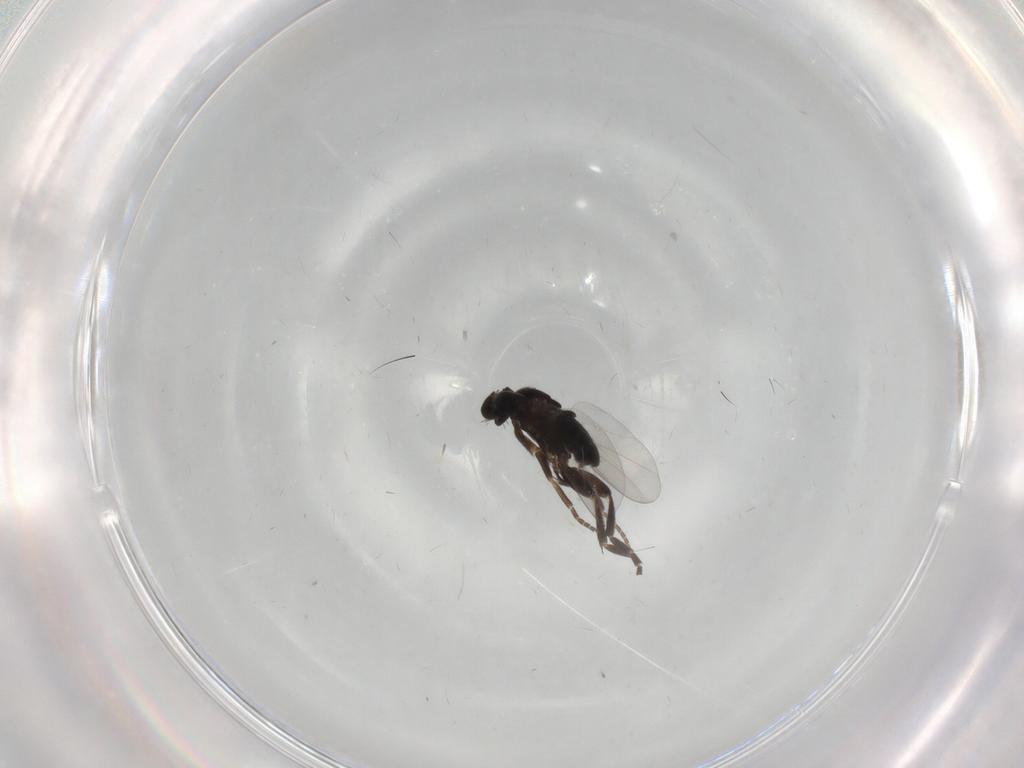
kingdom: Animalia
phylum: Arthropoda
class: Insecta
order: Diptera
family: Phoridae
